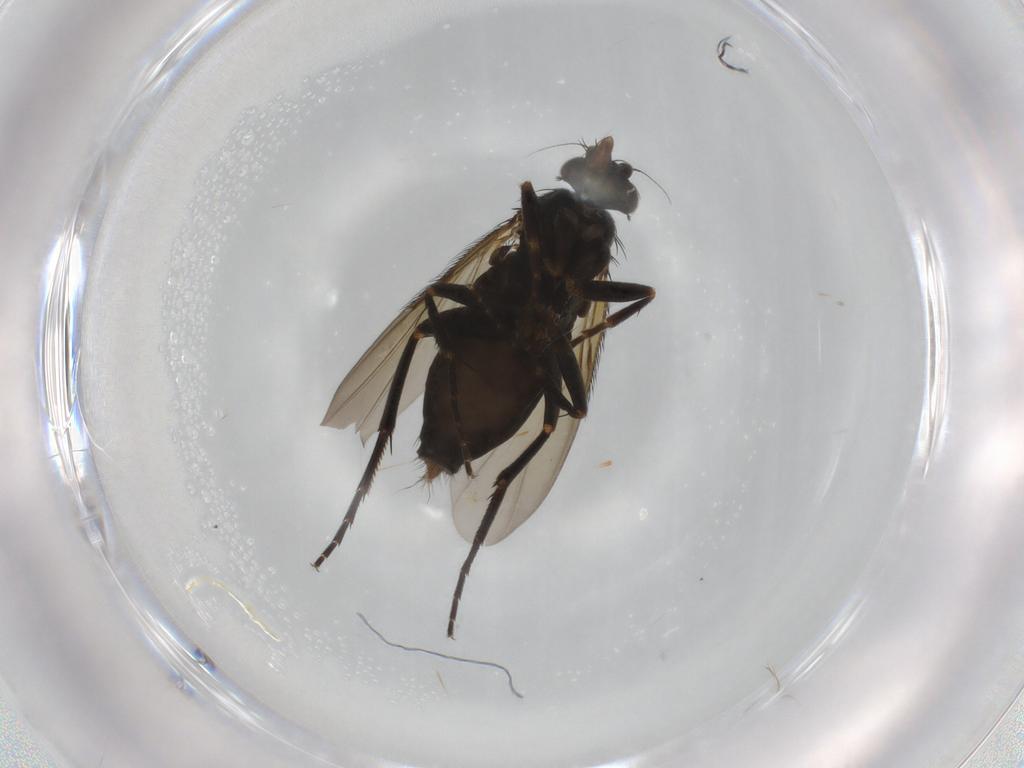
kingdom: Animalia
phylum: Arthropoda
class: Insecta
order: Diptera
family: Phoridae
